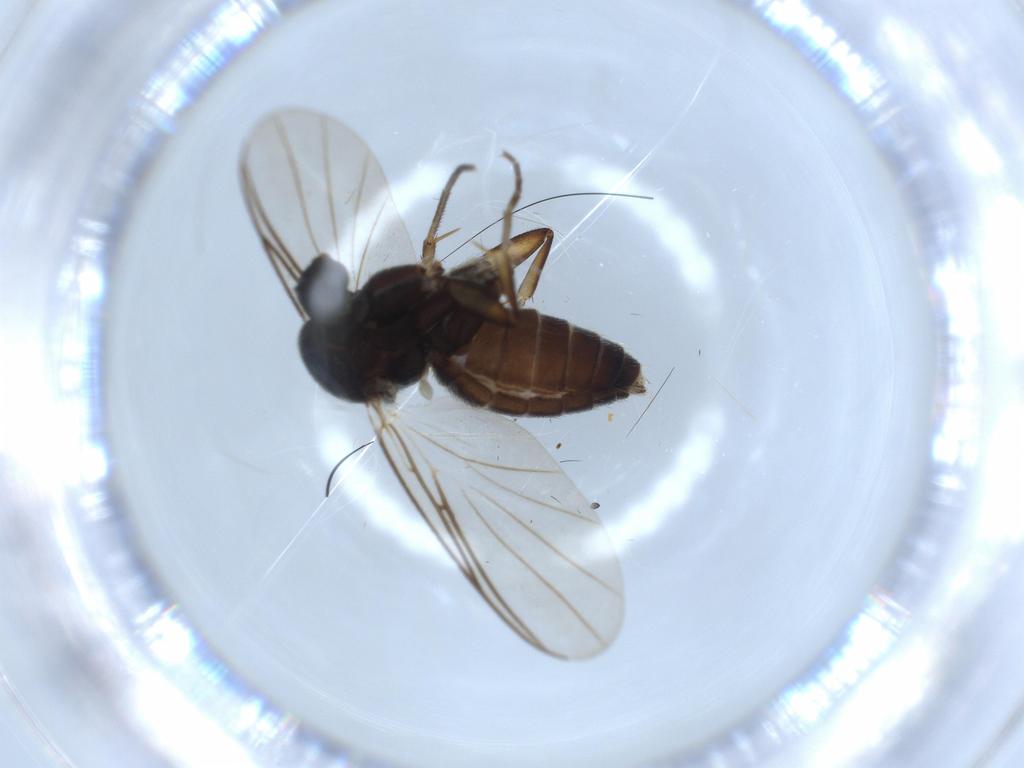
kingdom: Animalia
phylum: Arthropoda
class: Insecta
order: Diptera
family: Mycetophilidae
